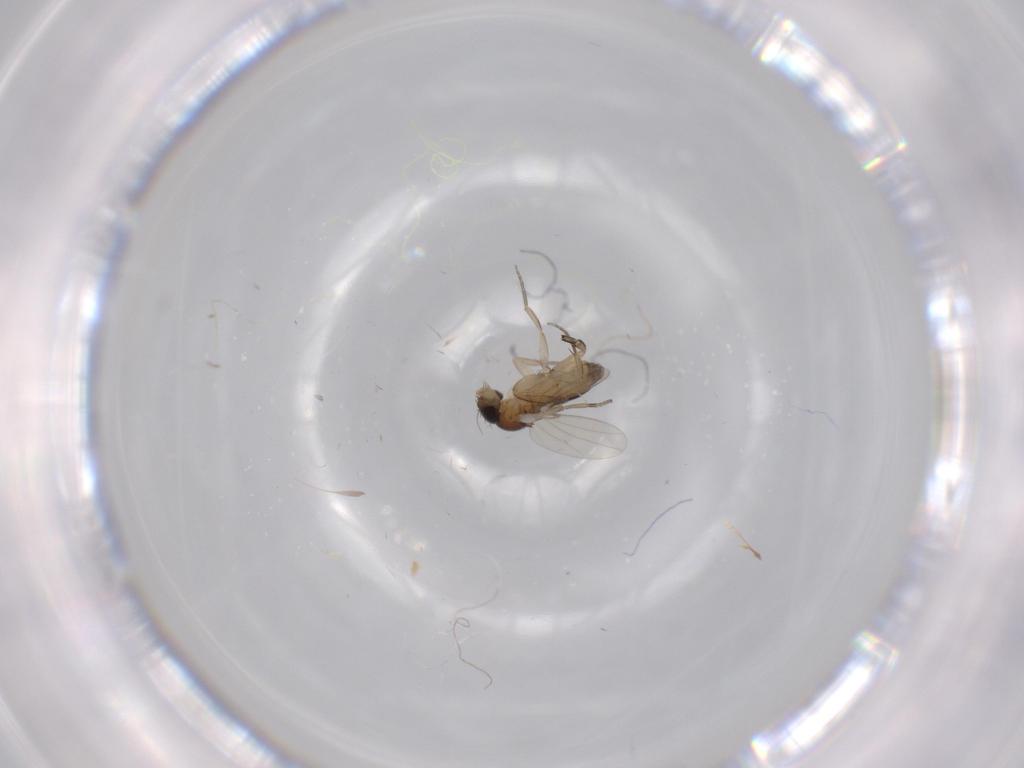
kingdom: Animalia
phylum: Arthropoda
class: Insecta
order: Diptera
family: Phoridae
